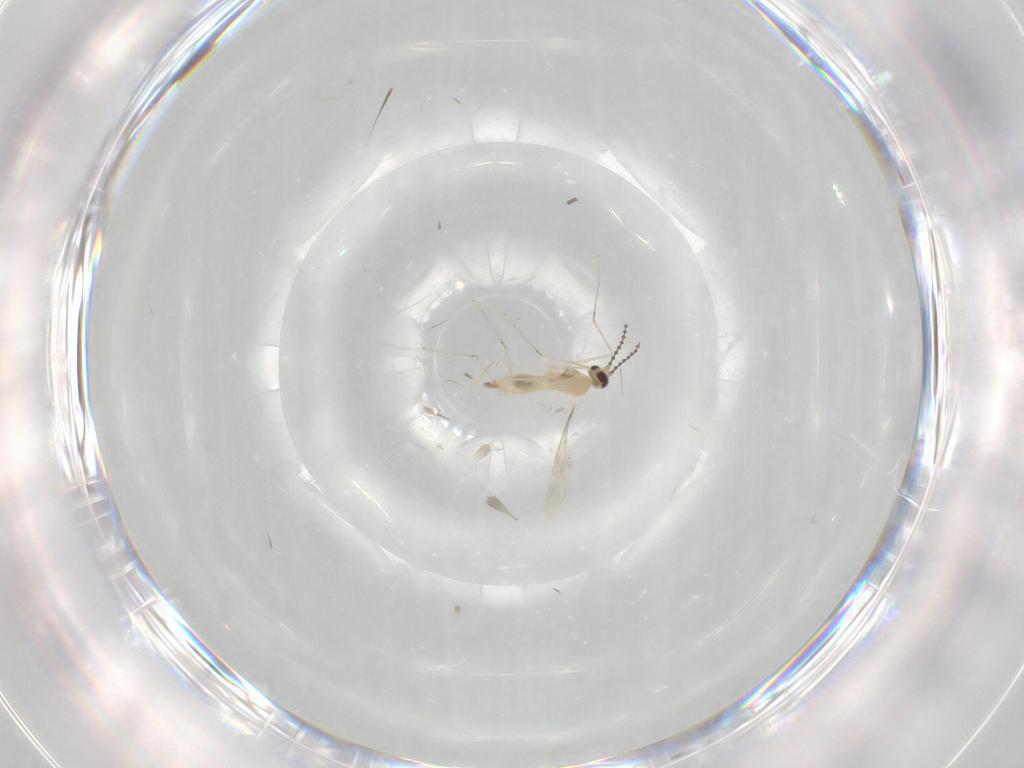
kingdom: Animalia
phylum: Arthropoda
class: Insecta
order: Diptera
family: Cecidomyiidae
